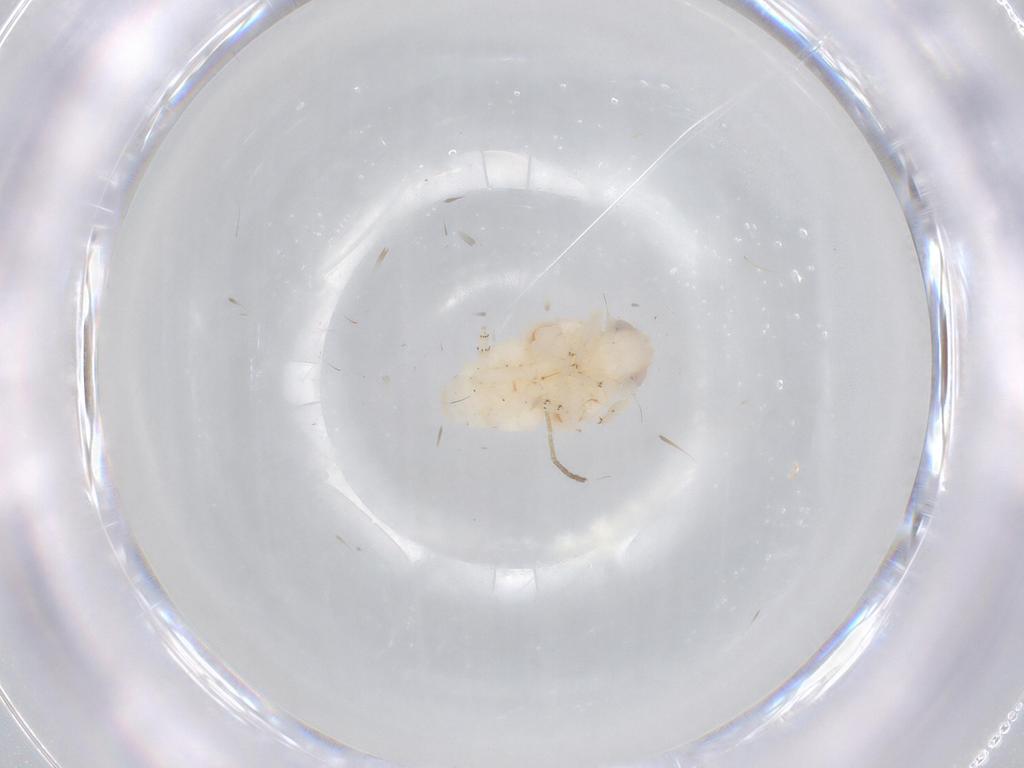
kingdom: Animalia
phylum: Arthropoda
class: Insecta
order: Hemiptera
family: Nogodinidae
